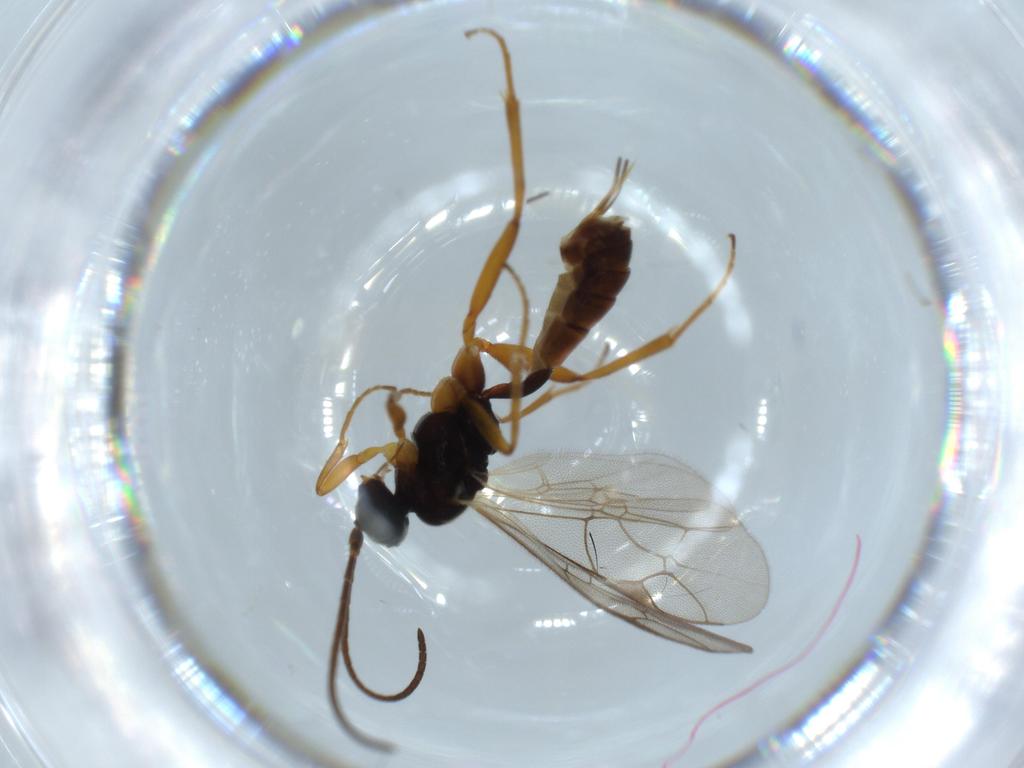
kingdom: Animalia
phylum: Arthropoda
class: Insecta
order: Hymenoptera
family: Ichneumonidae
